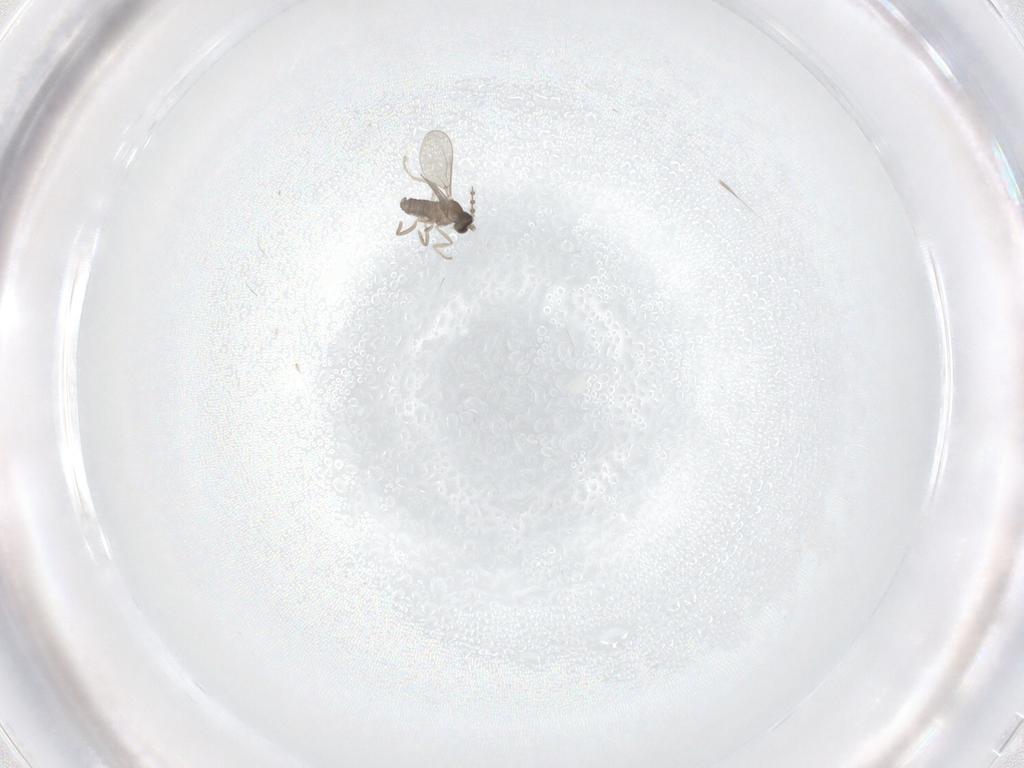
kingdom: Animalia
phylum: Arthropoda
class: Insecta
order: Diptera
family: Cecidomyiidae
